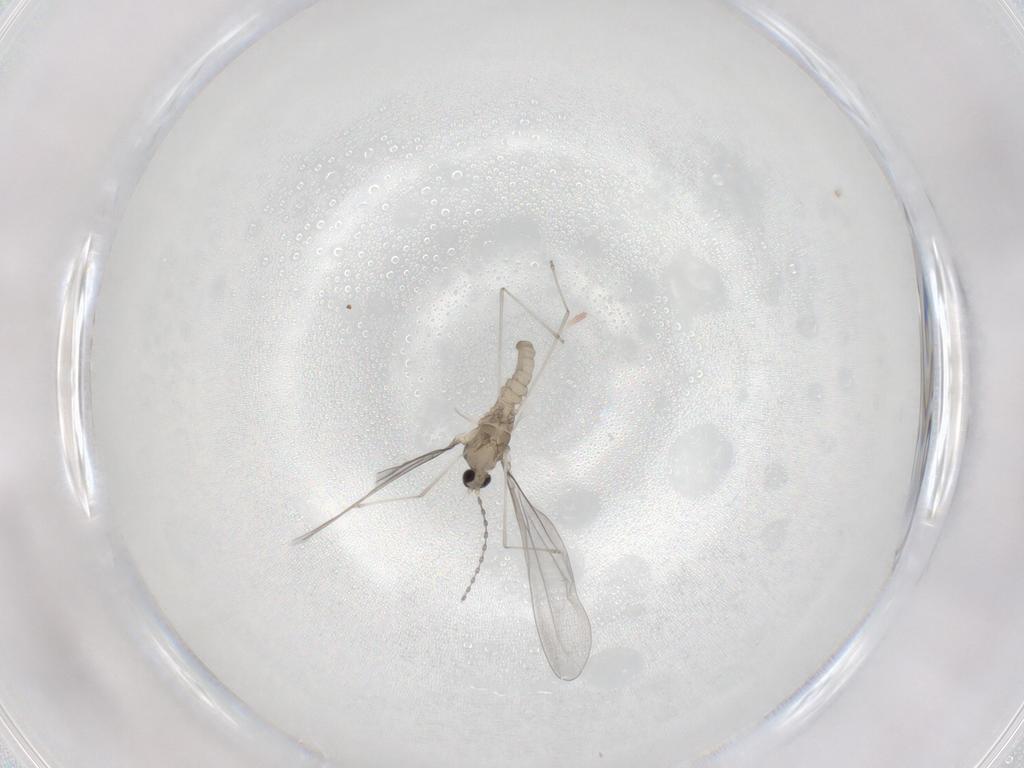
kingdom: Animalia
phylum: Arthropoda
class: Insecta
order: Diptera
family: Empididae
